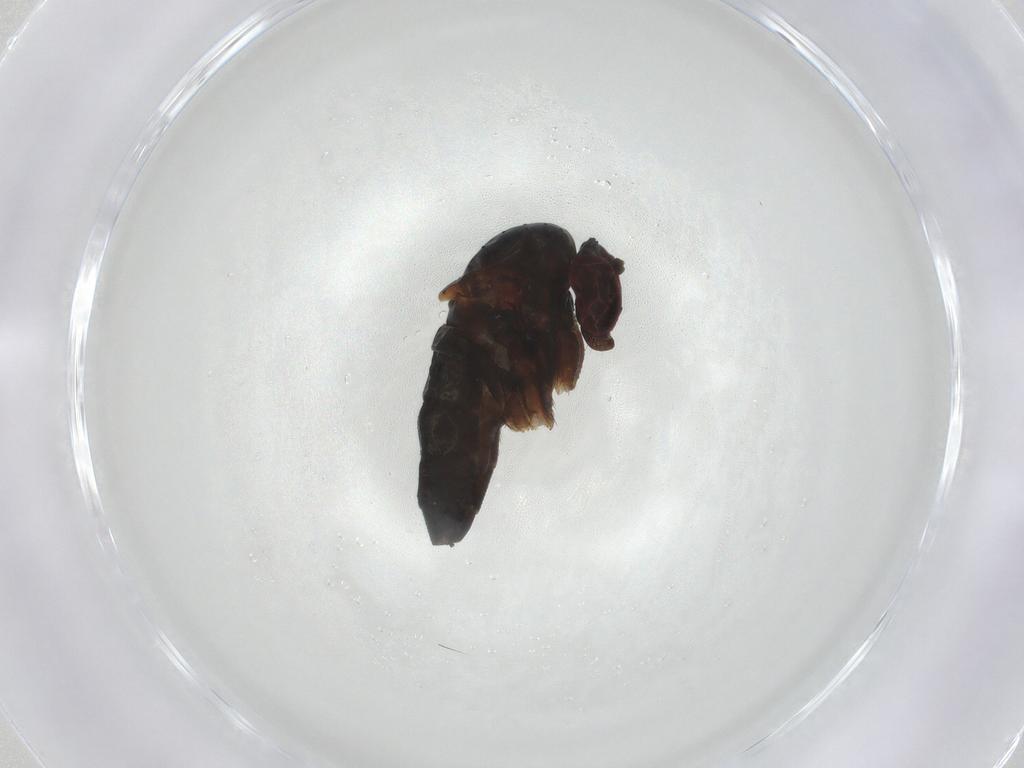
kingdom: Animalia
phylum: Arthropoda
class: Insecta
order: Diptera
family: Dolichopodidae
